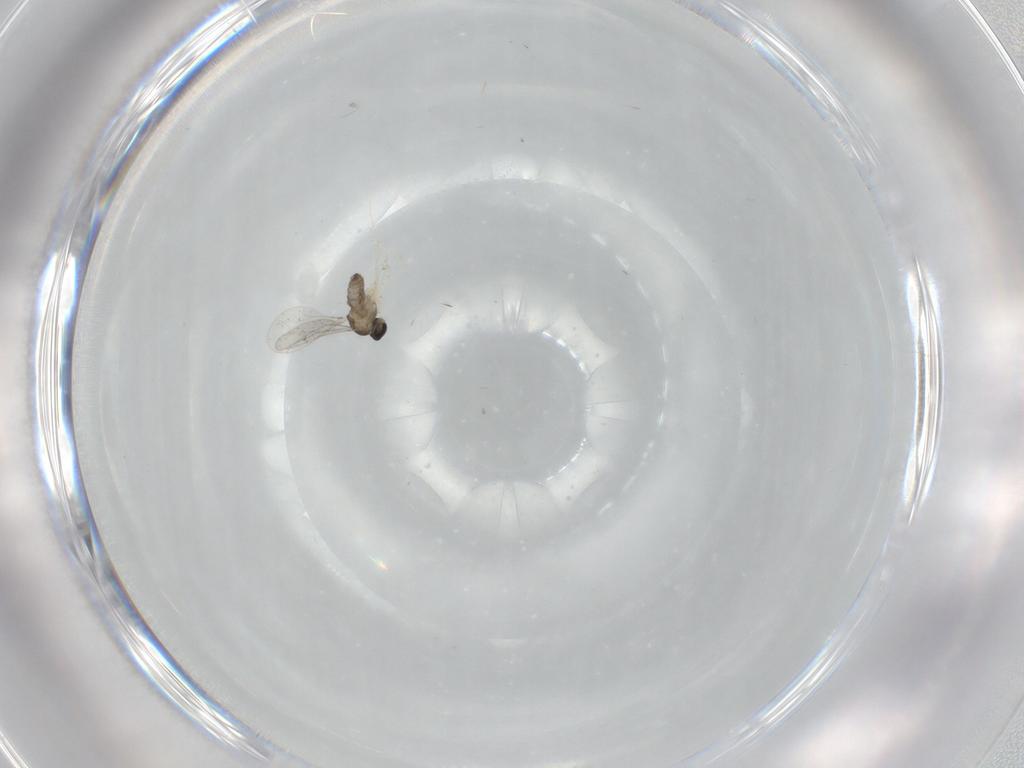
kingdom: Animalia
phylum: Arthropoda
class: Insecta
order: Diptera
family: Cecidomyiidae
